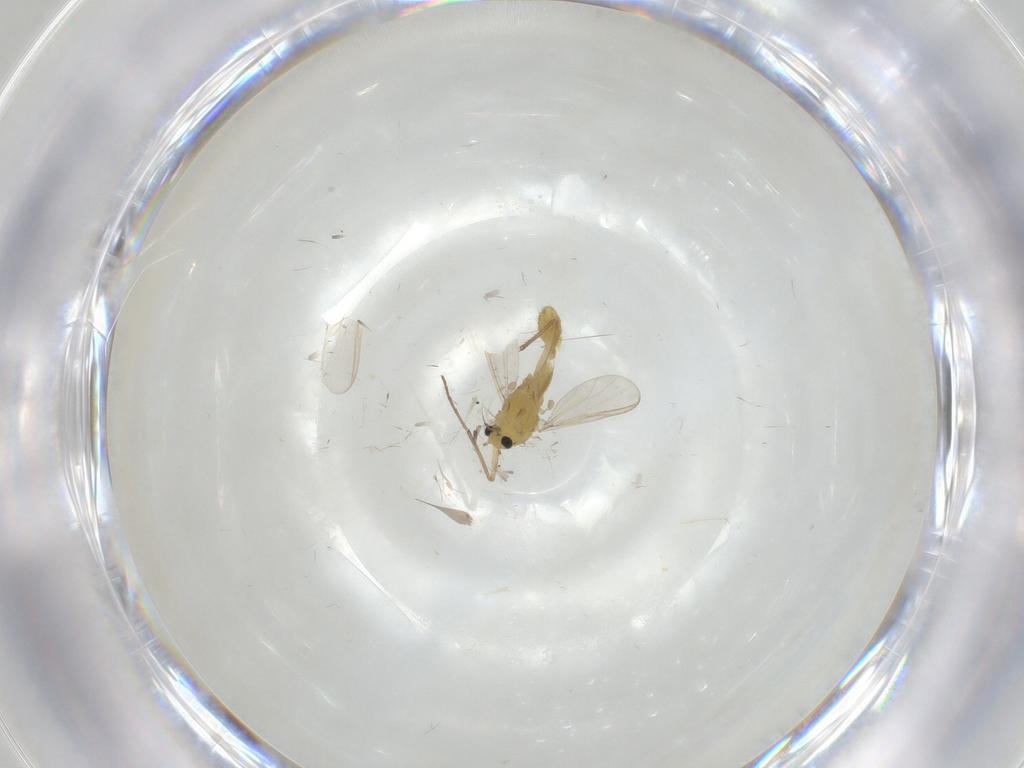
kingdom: Animalia
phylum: Arthropoda
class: Insecta
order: Diptera
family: Chironomidae
